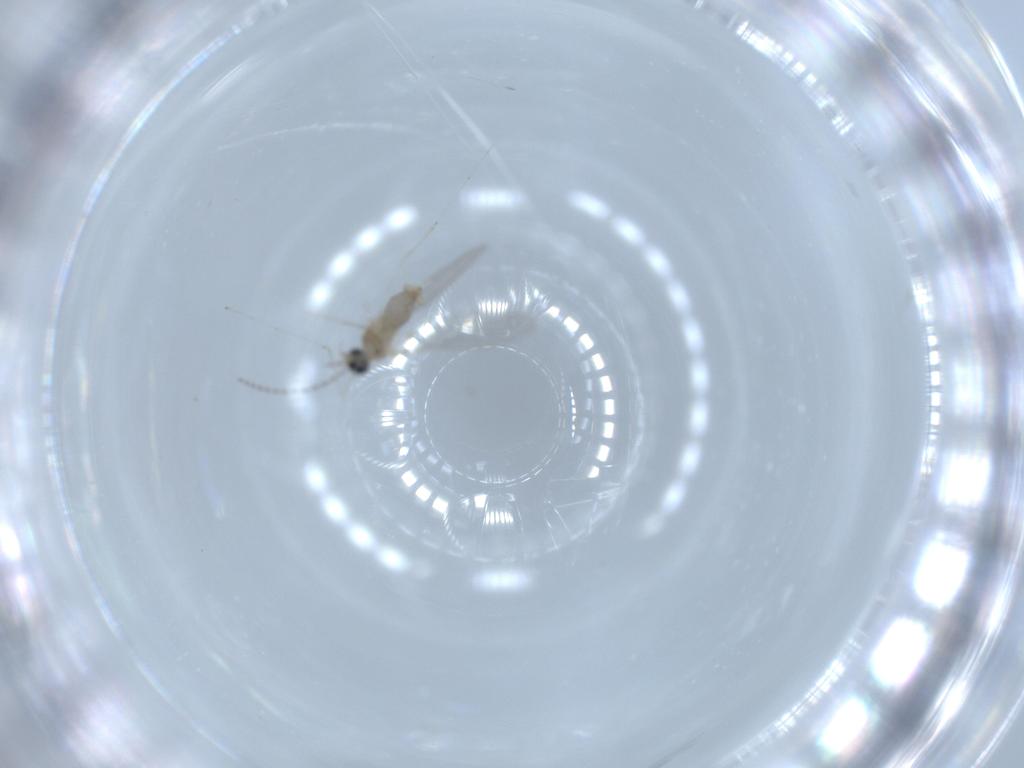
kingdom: Animalia
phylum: Arthropoda
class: Insecta
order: Diptera
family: Cecidomyiidae
